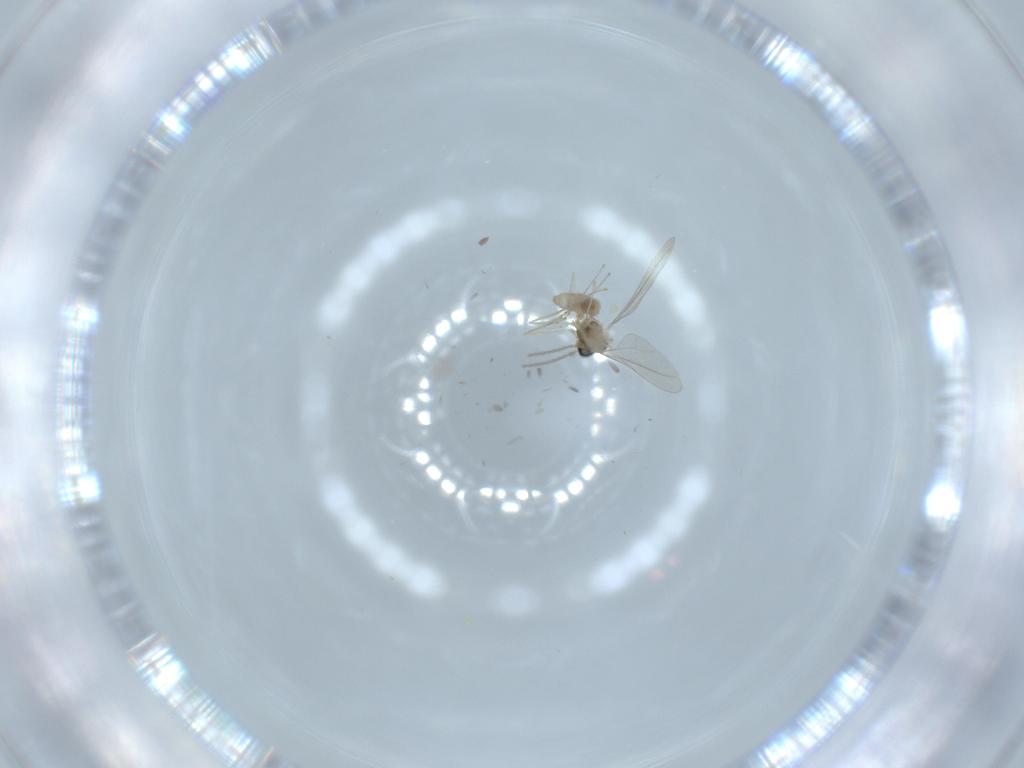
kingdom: Animalia
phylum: Arthropoda
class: Insecta
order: Diptera
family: Cecidomyiidae
